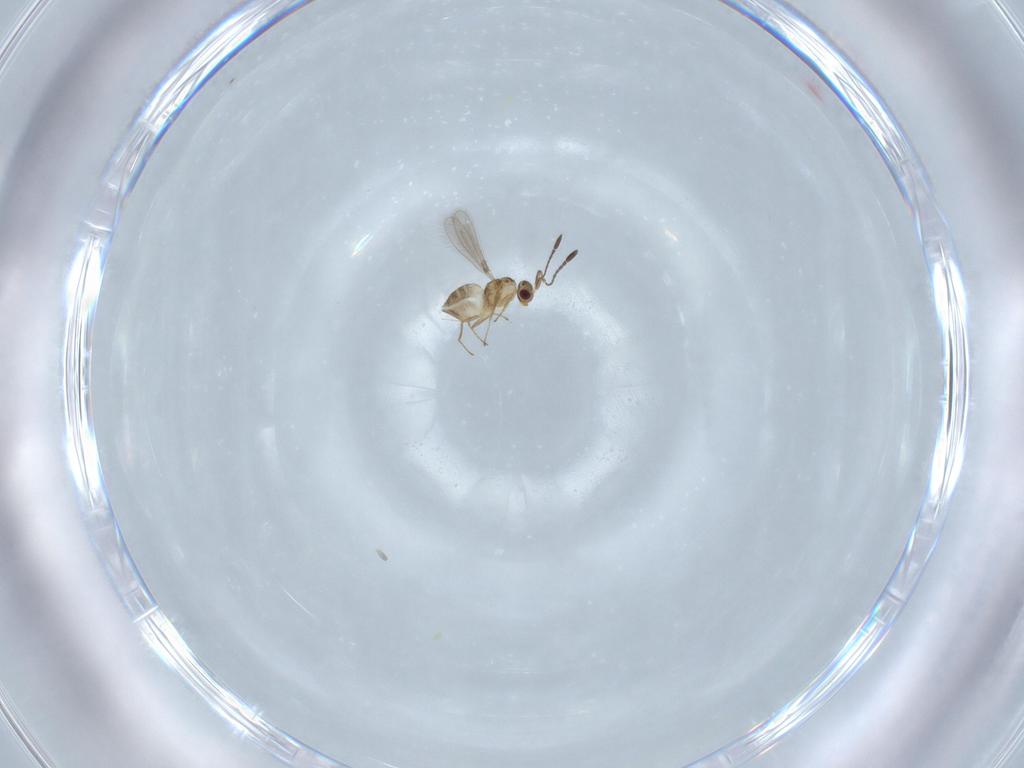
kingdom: Animalia
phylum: Arthropoda
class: Insecta
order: Hymenoptera
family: Mymaridae
